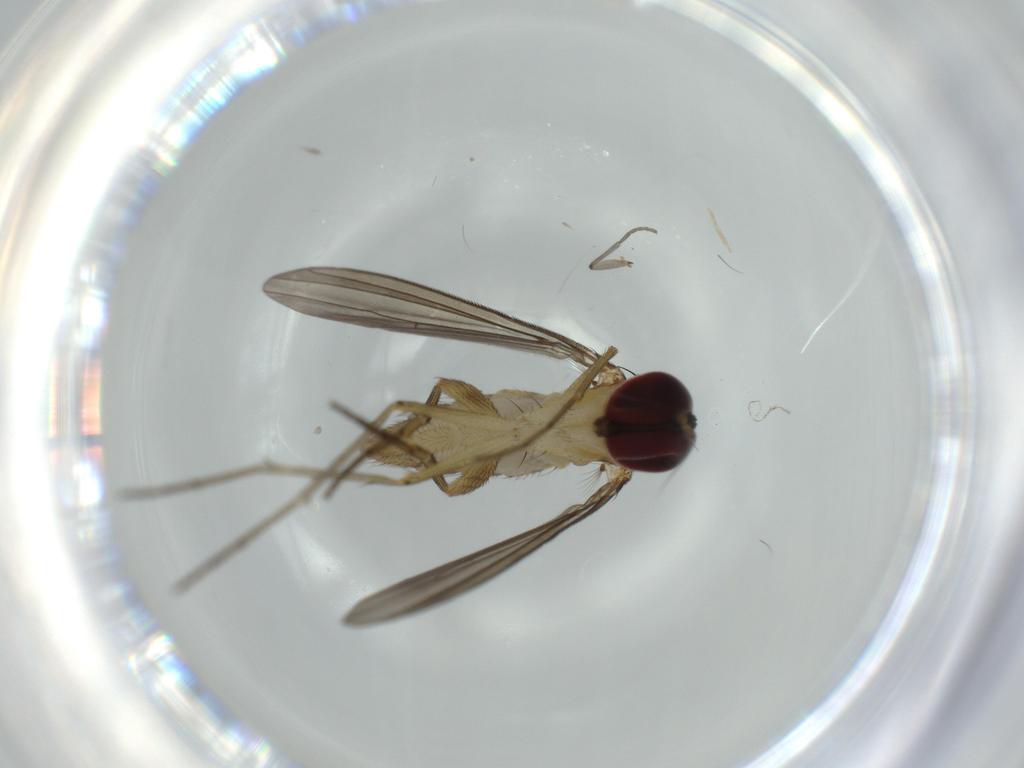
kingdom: Animalia
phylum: Arthropoda
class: Insecta
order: Diptera
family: Dolichopodidae
